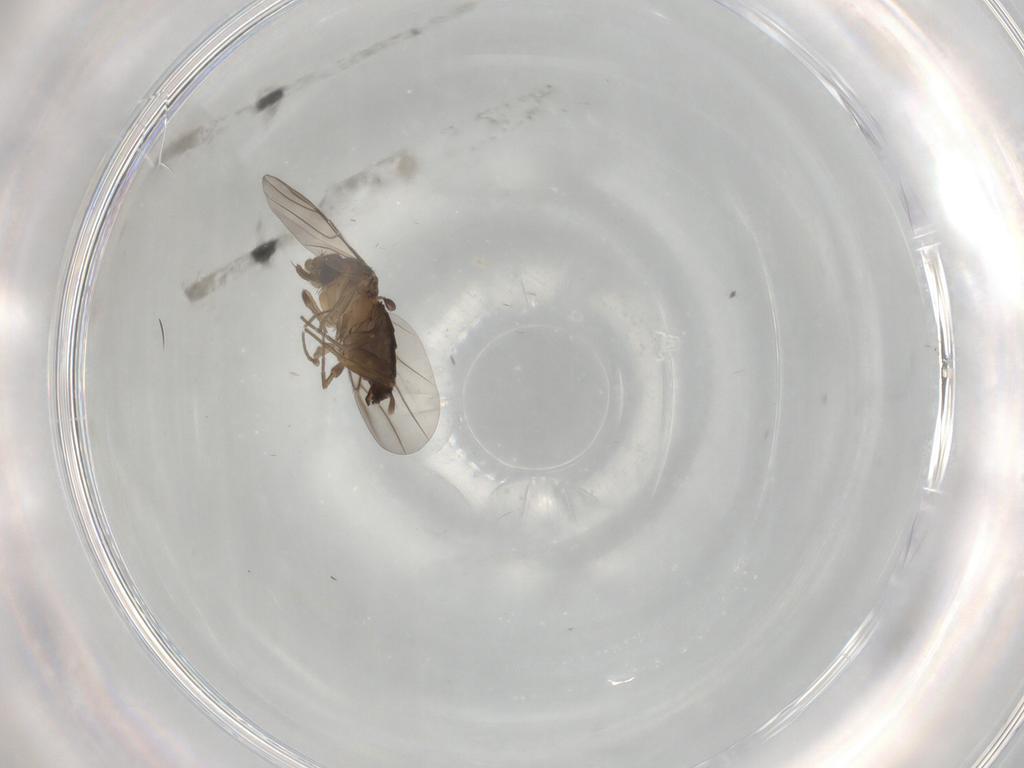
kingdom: Animalia
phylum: Arthropoda
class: Insecta
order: Diptera
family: Phoridae
